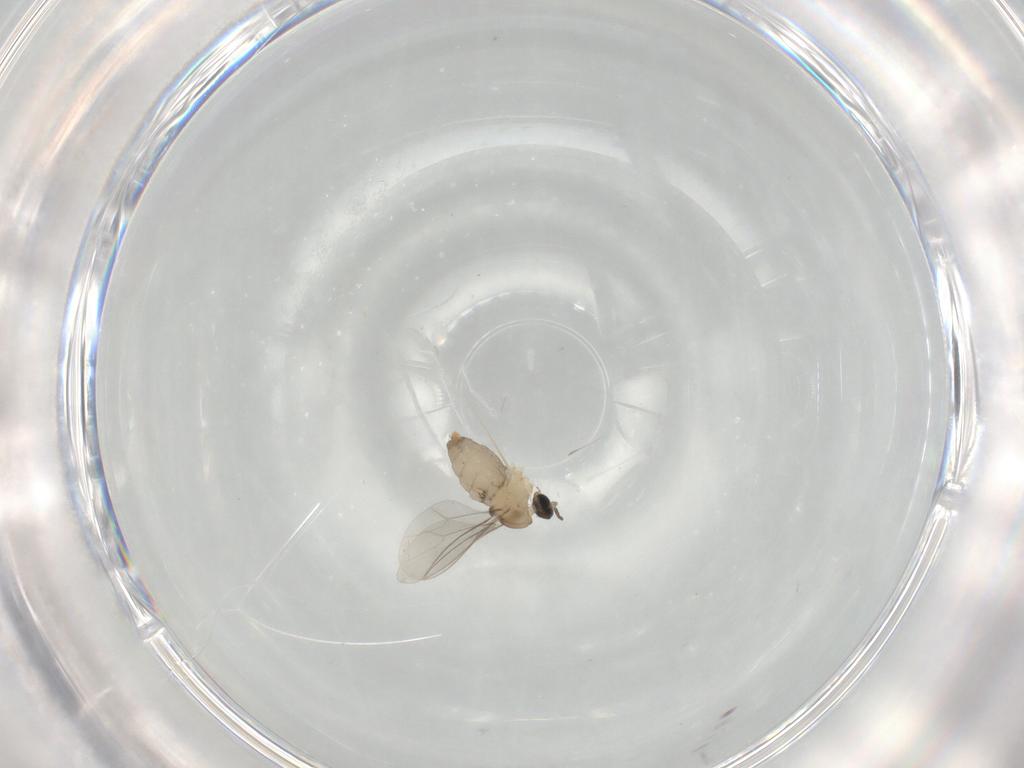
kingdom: Animalia
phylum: Arthropoda
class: Insecta
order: Diptera
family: Cecidomyiidae
